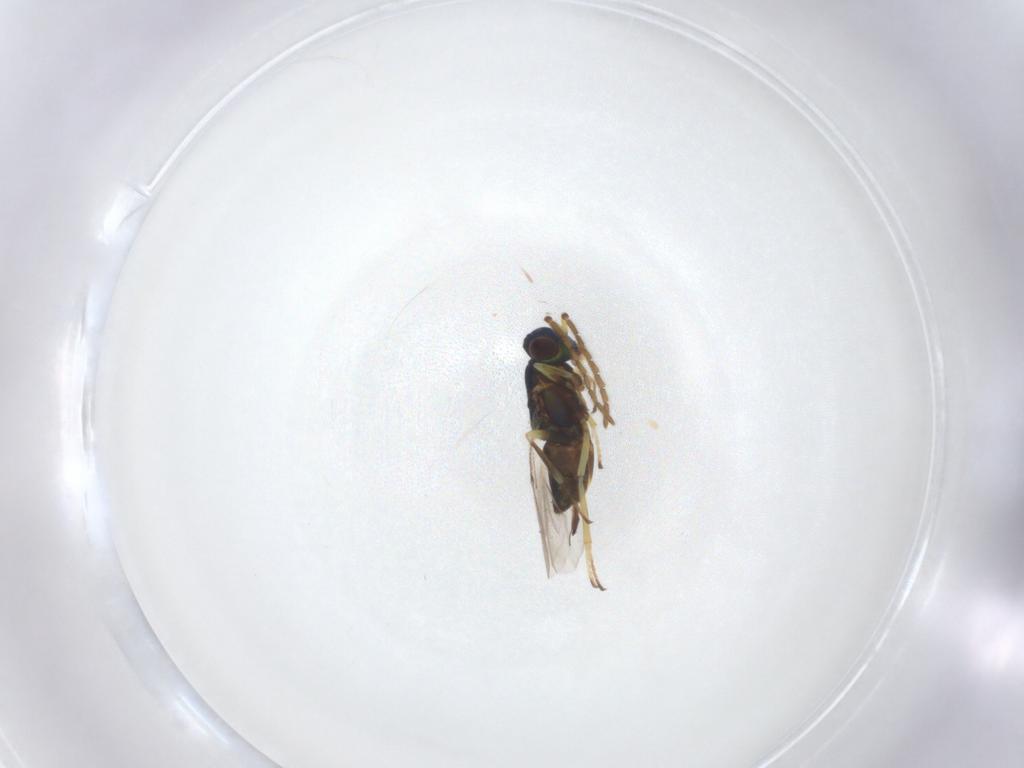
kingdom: Animalia
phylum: Arthropoda
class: Insecta
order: Hymenoptera
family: Encyrtidae
